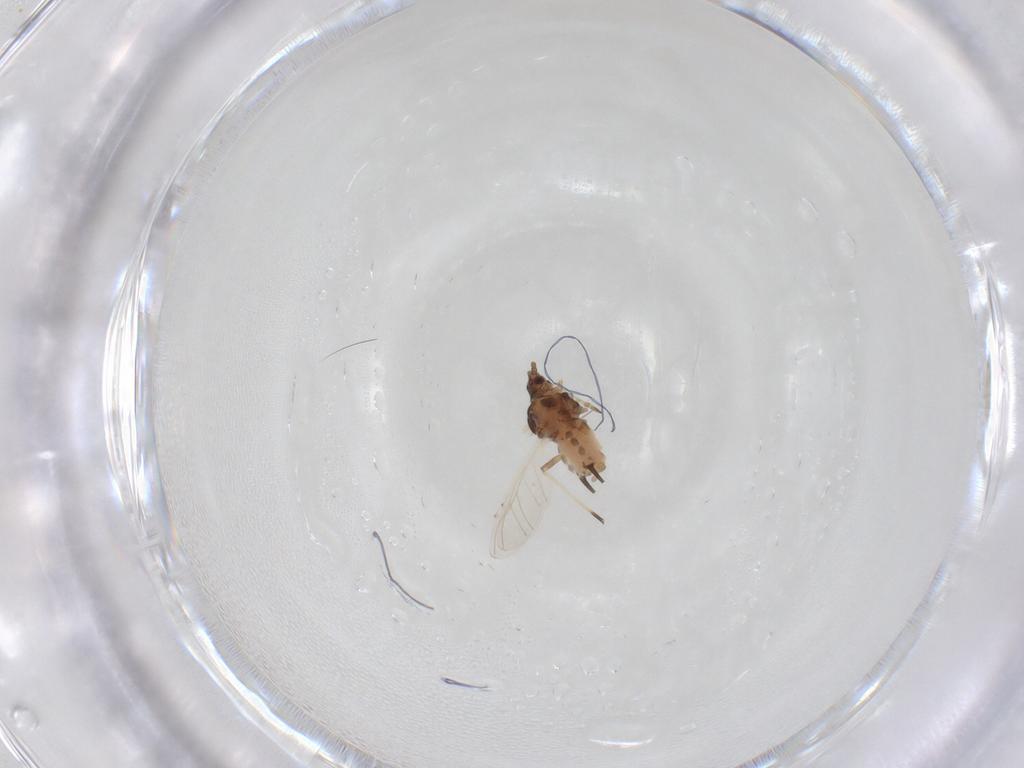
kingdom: Animalia
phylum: Arthropoda
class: Insecta
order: Hemiptera
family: Aphididae
